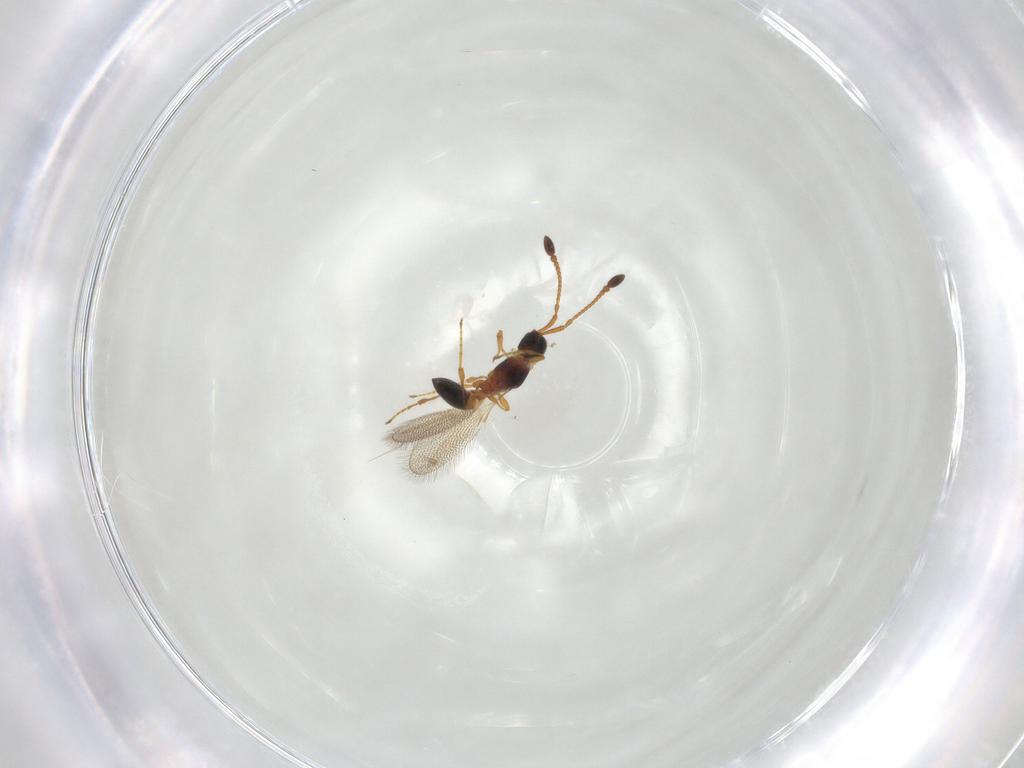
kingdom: Animalia
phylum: Arthropoda
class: Insecta
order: Hymenoptera
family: Diapriidae
